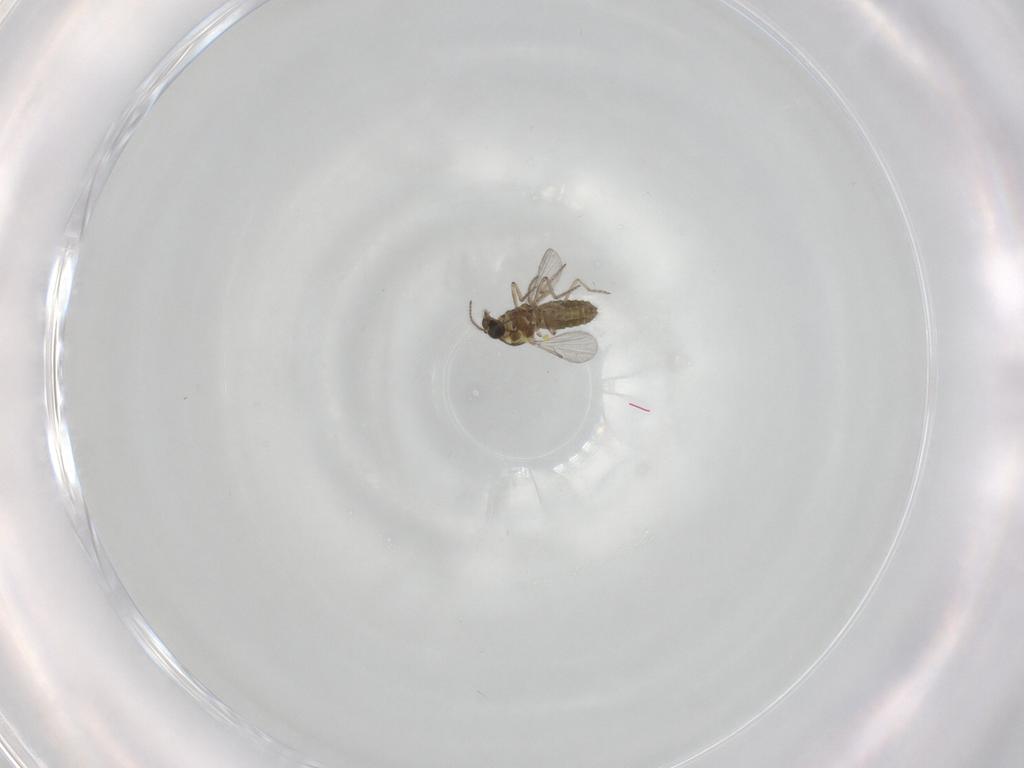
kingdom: Animalia
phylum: Arthropoda
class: Insecta
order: Diptera
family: Ceratopogonidae
